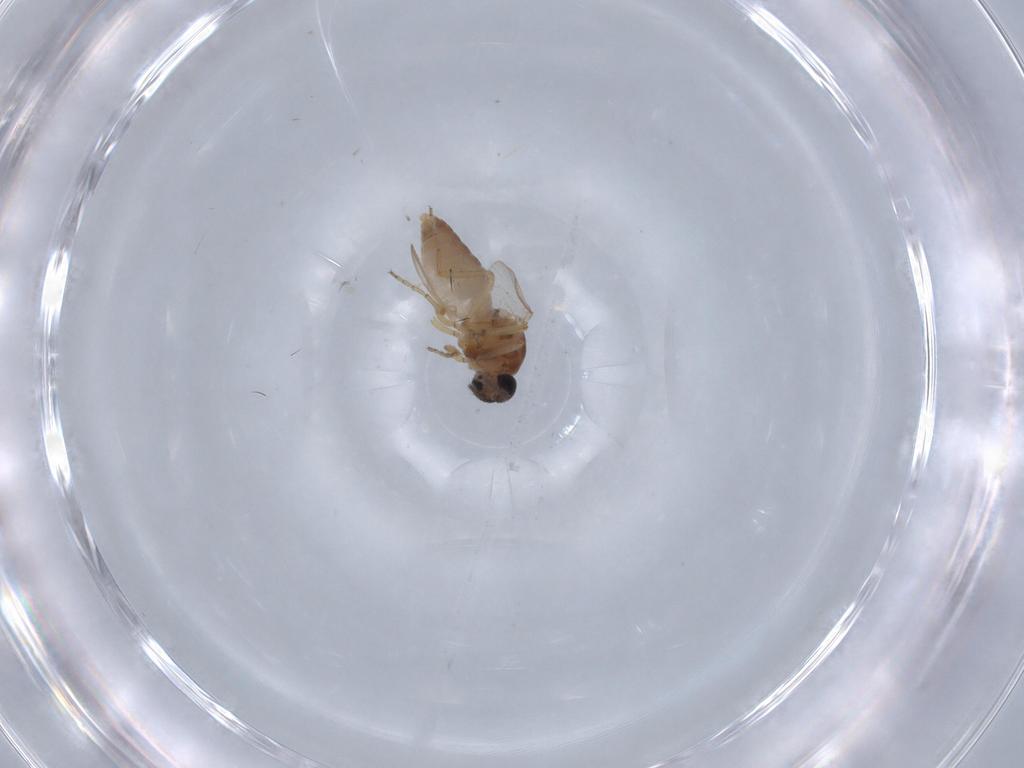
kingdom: Animalia
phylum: Arthropoda
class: Insecta
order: Diptera
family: Ceratopogonidae
